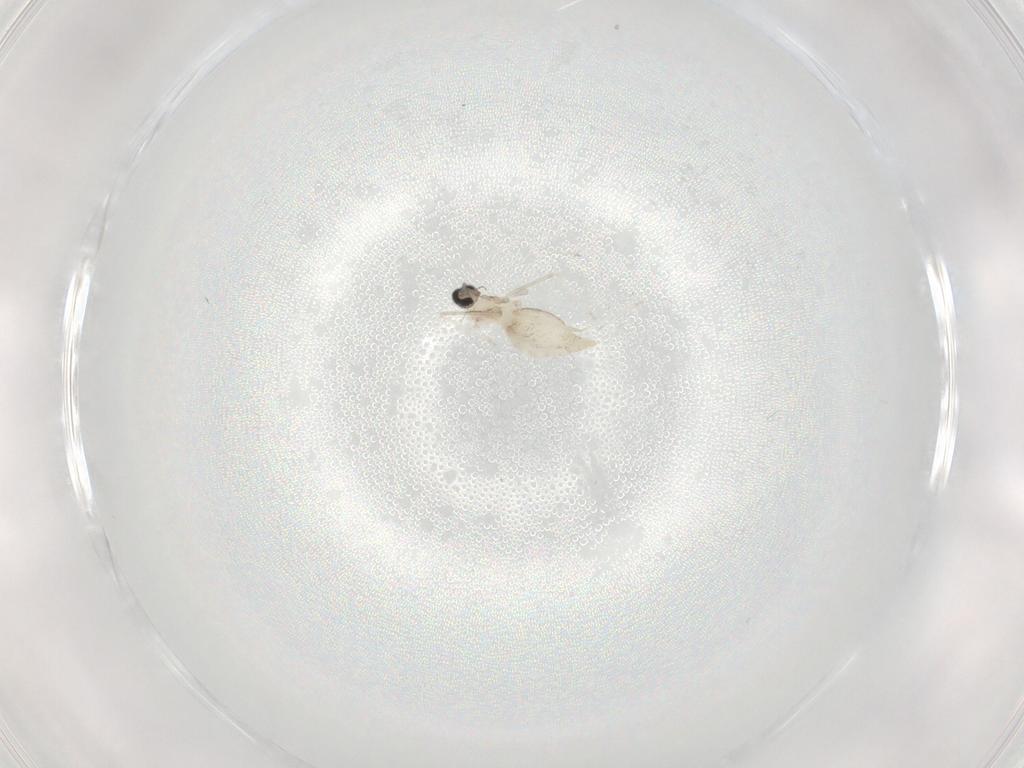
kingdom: Animalia
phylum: Arthropoda
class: Insecta
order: Diptera
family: Cecidomyiidae
